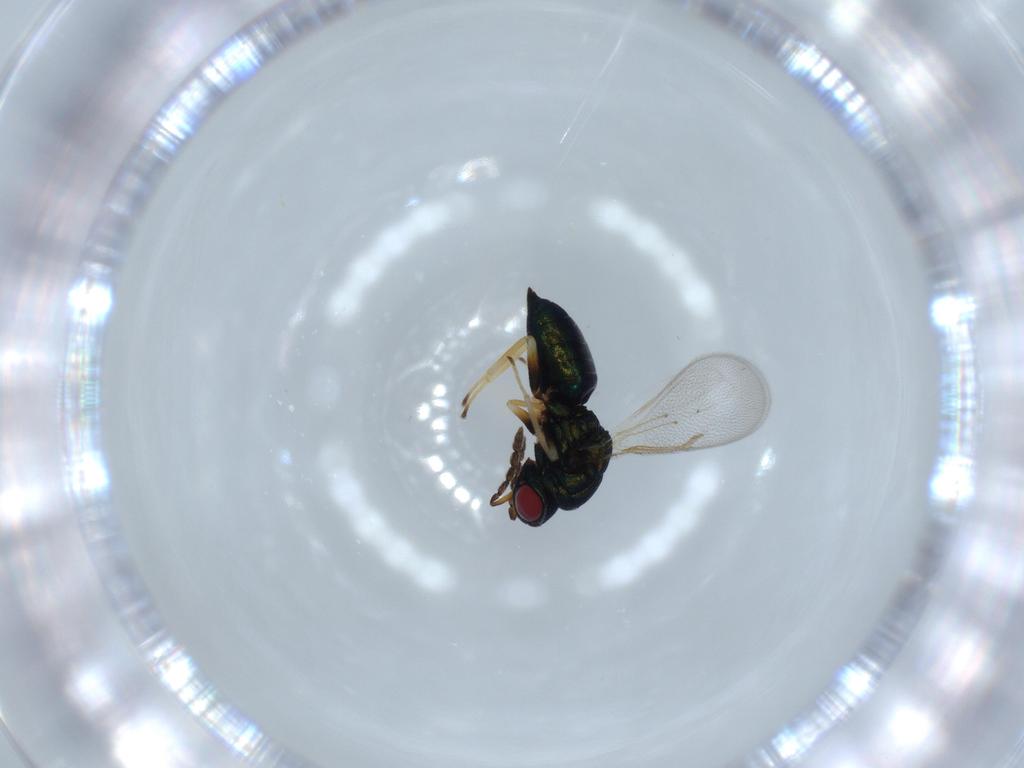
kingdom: Animalia
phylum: Arthropoda
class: Insecta
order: Hymenoptera
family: Eulophidae
